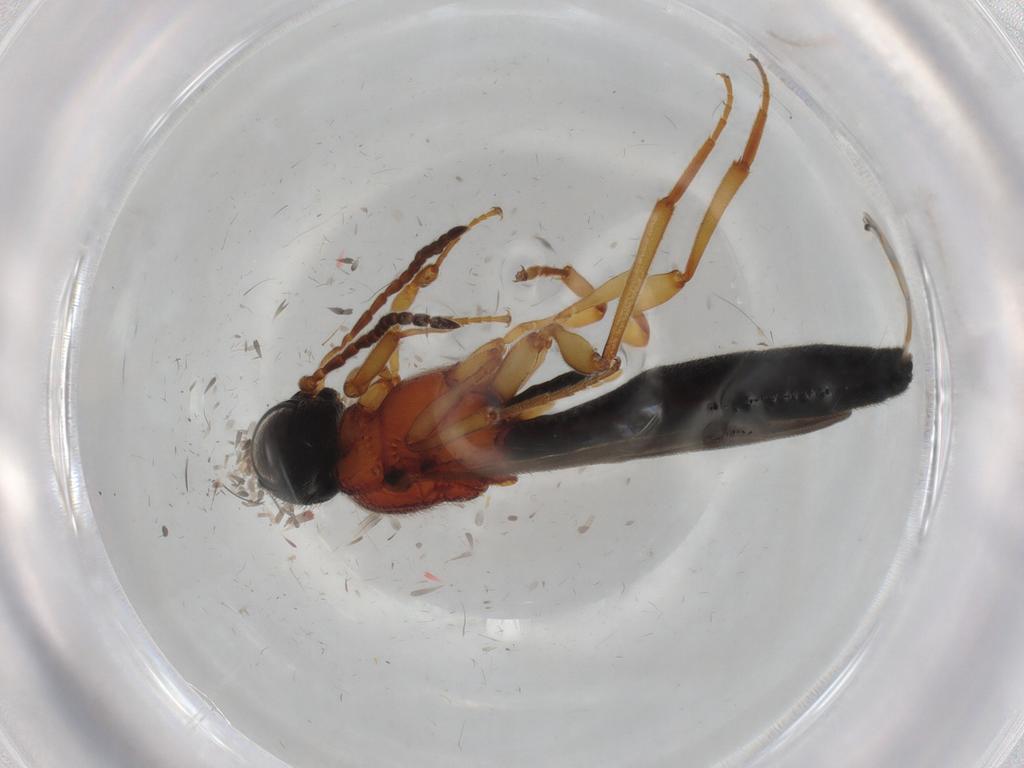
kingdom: Animalia
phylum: Arthropoda
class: Insecta
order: Hymenoptera
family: Scelionidae
